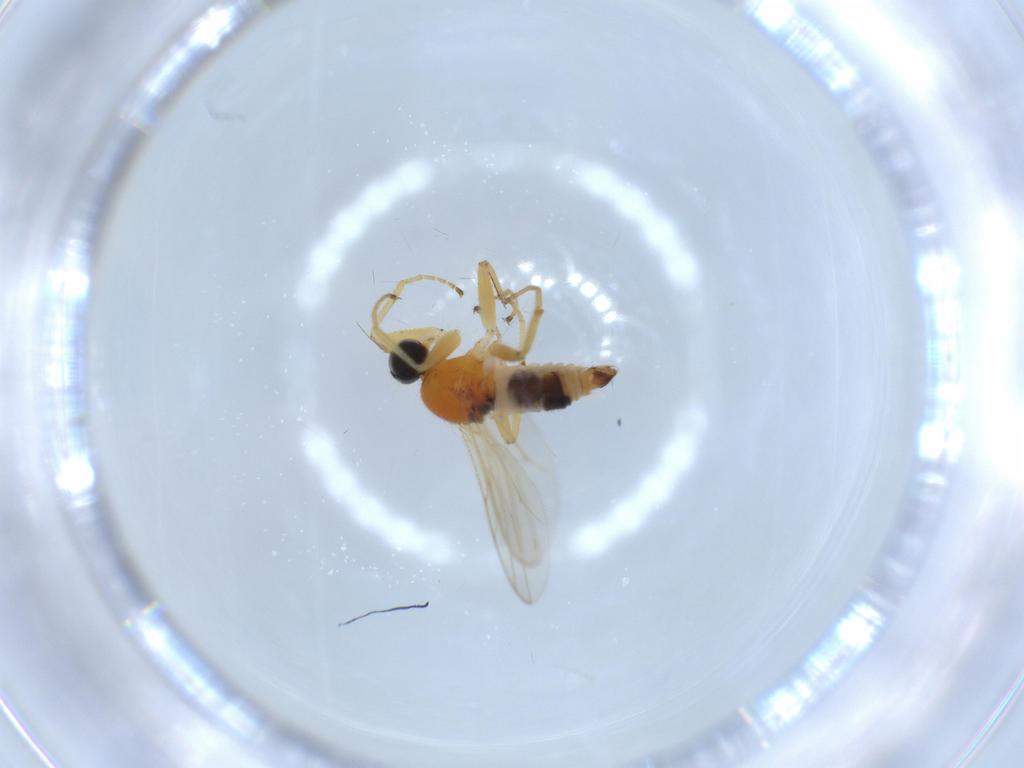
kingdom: Animalia
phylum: Arthropoda
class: Insecta
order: Diptera
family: Hybotidae
